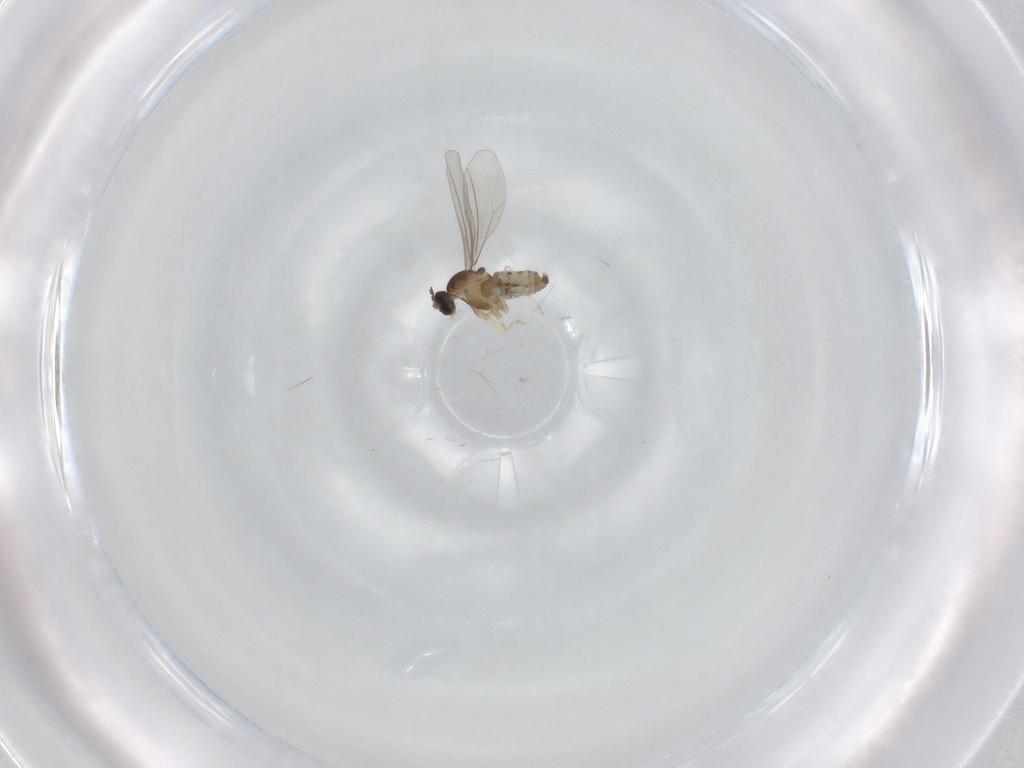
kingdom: Animalia
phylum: Arthropoda
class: Insecta
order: Diptera
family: Cecidomyiidae
